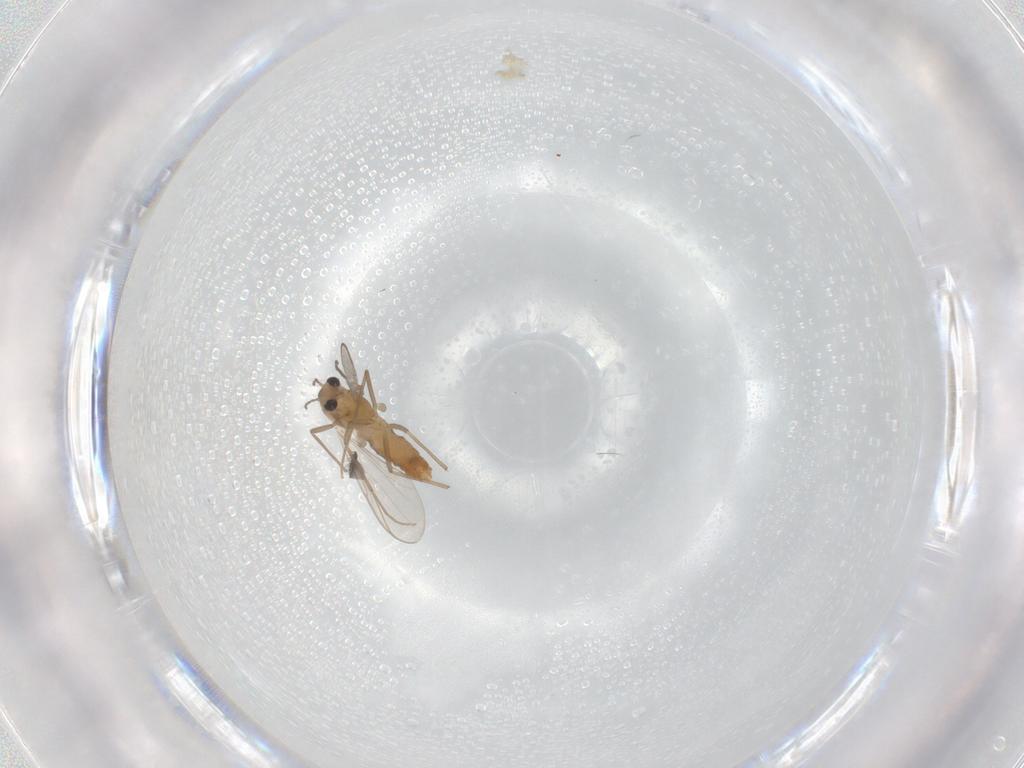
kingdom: Animalia
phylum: Arthropoda
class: Insecta
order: Diptera
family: Sciaridae
